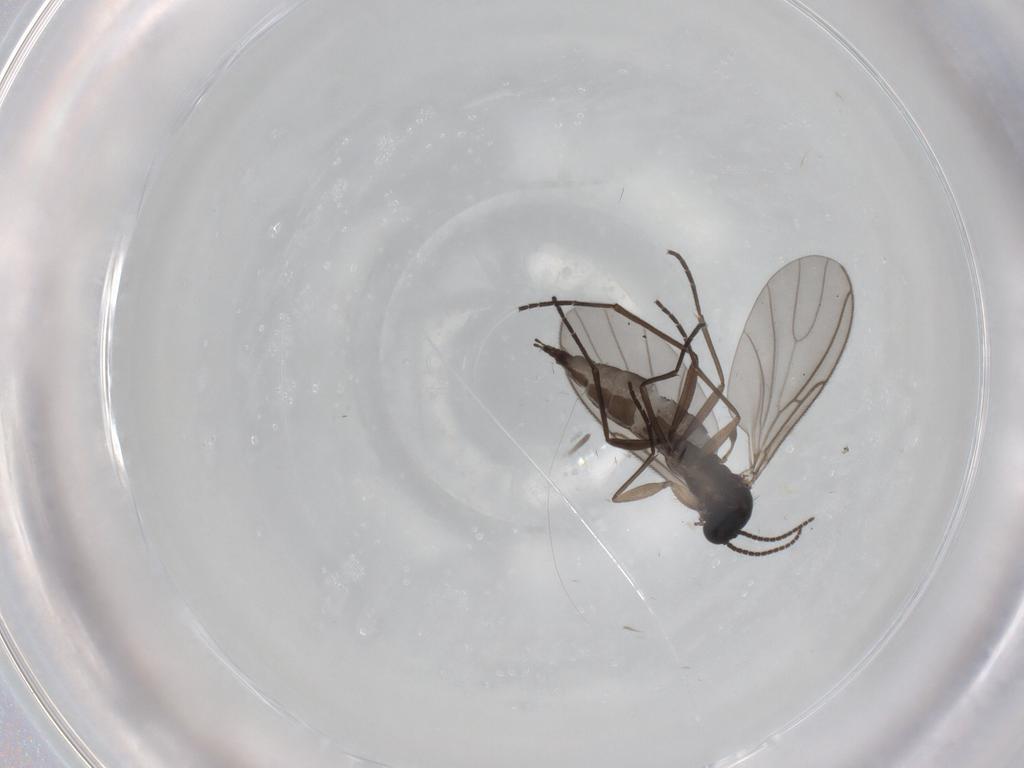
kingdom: Animalia
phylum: Arthropoda
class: Insecta
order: Diptera
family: Sciaridae
